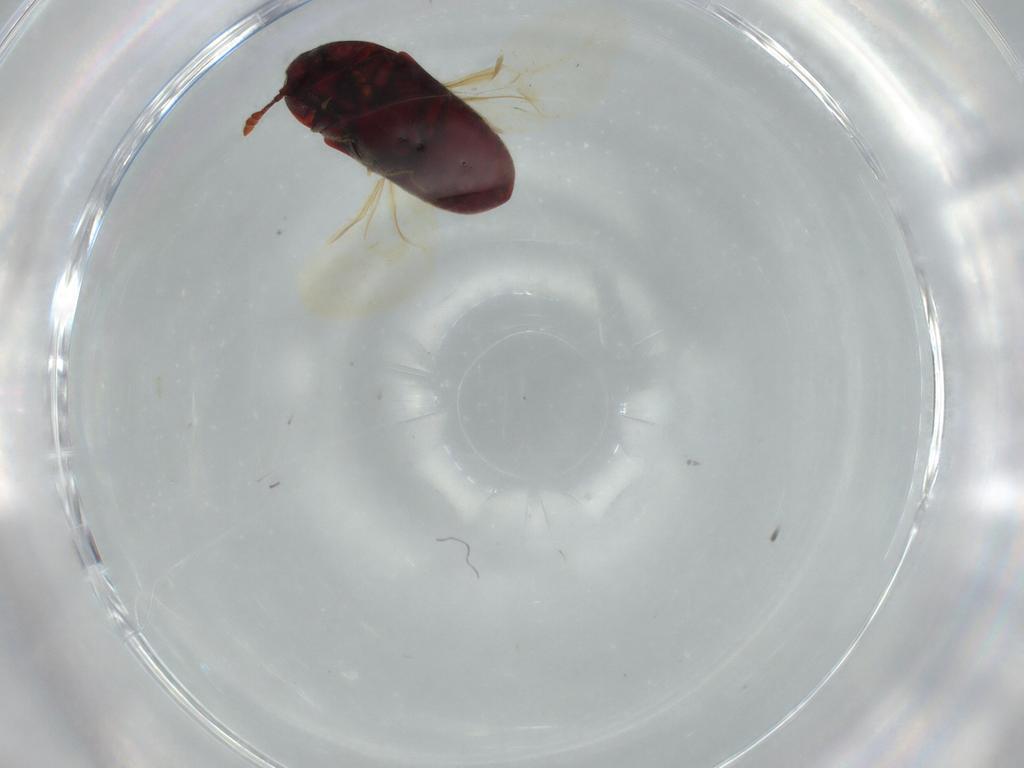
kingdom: Animalia
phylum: Arthropoda
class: Insecta
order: Coleoptera
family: Throscidae
